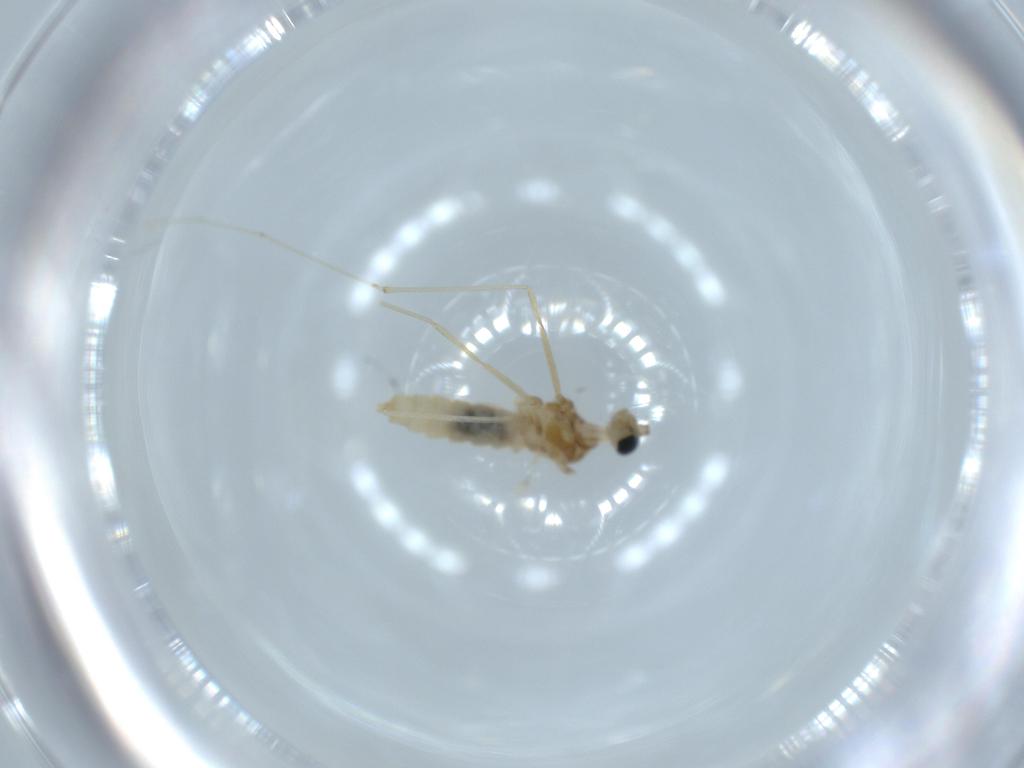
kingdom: Animalia
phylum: Arthropoda
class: Insecta
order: Diptera
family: Cecidomyiidae
